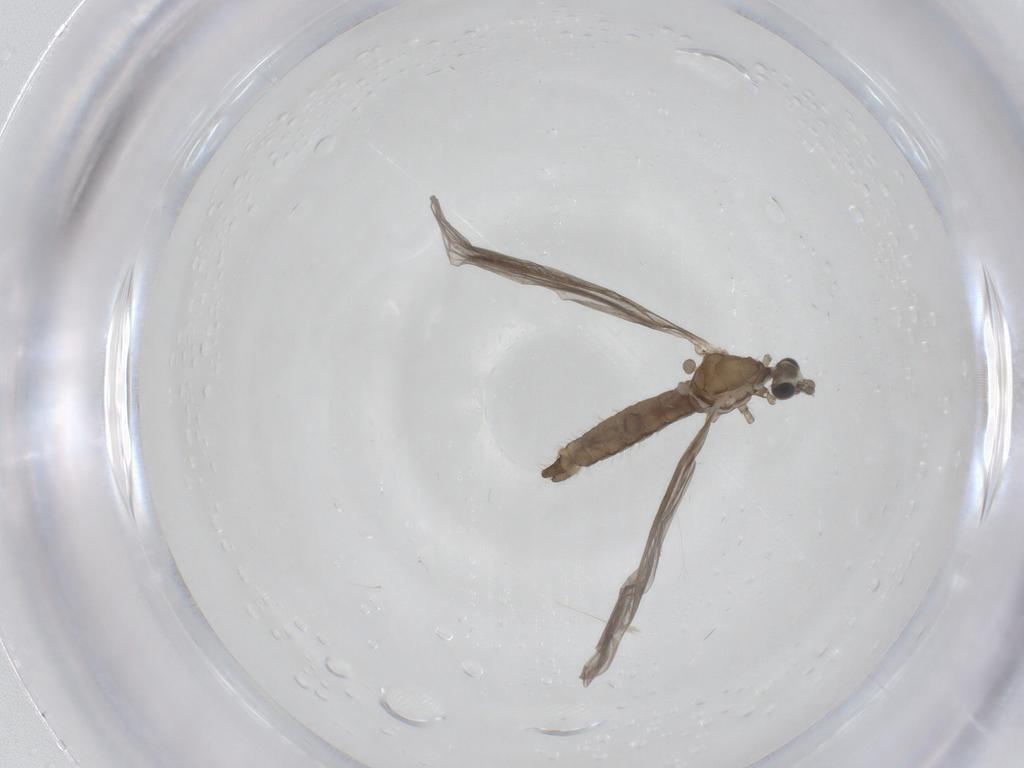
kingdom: Animalia
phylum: Arthropoda
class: Insecta
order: Diptera
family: Limoniidae
